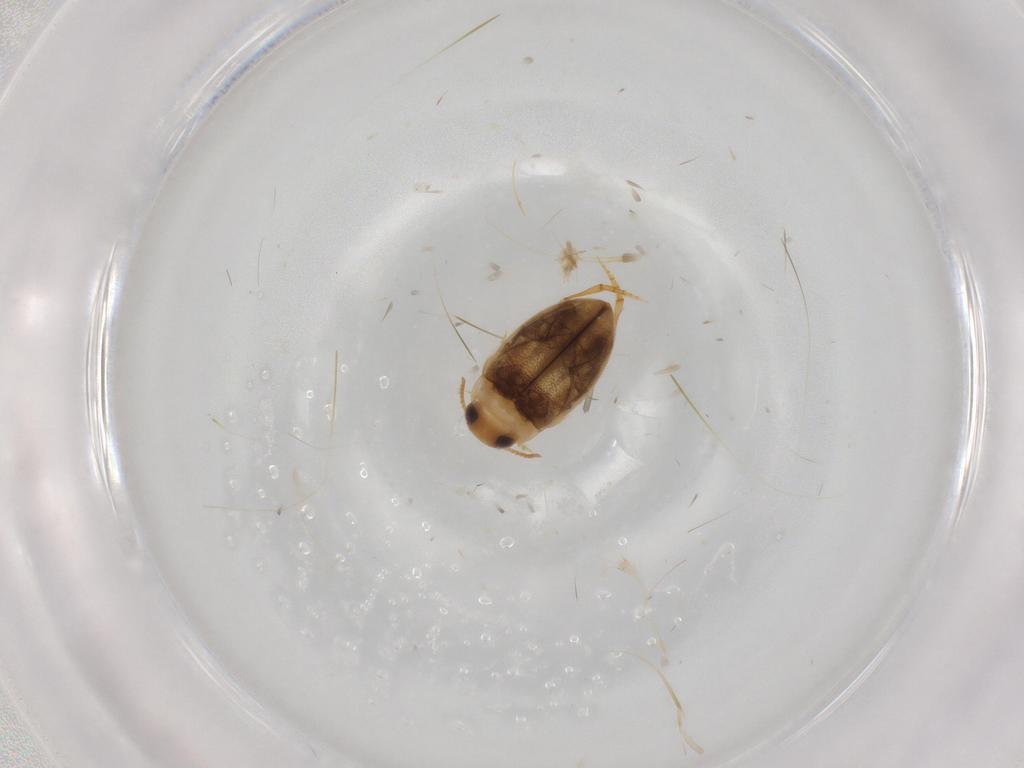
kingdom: Animalia
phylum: Arthropoda
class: Insecta
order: Coleoptera
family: Dytiscidae
